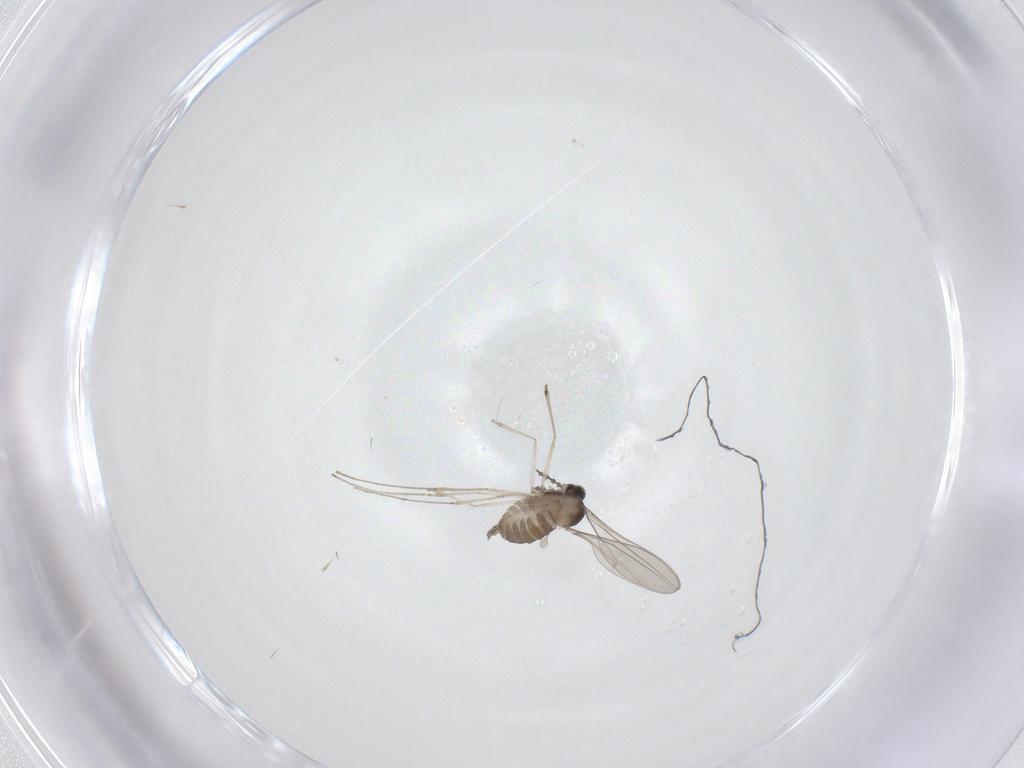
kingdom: Animalia
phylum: Arthropoda
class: Insecta
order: Diptera
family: Cecidomyiidae
